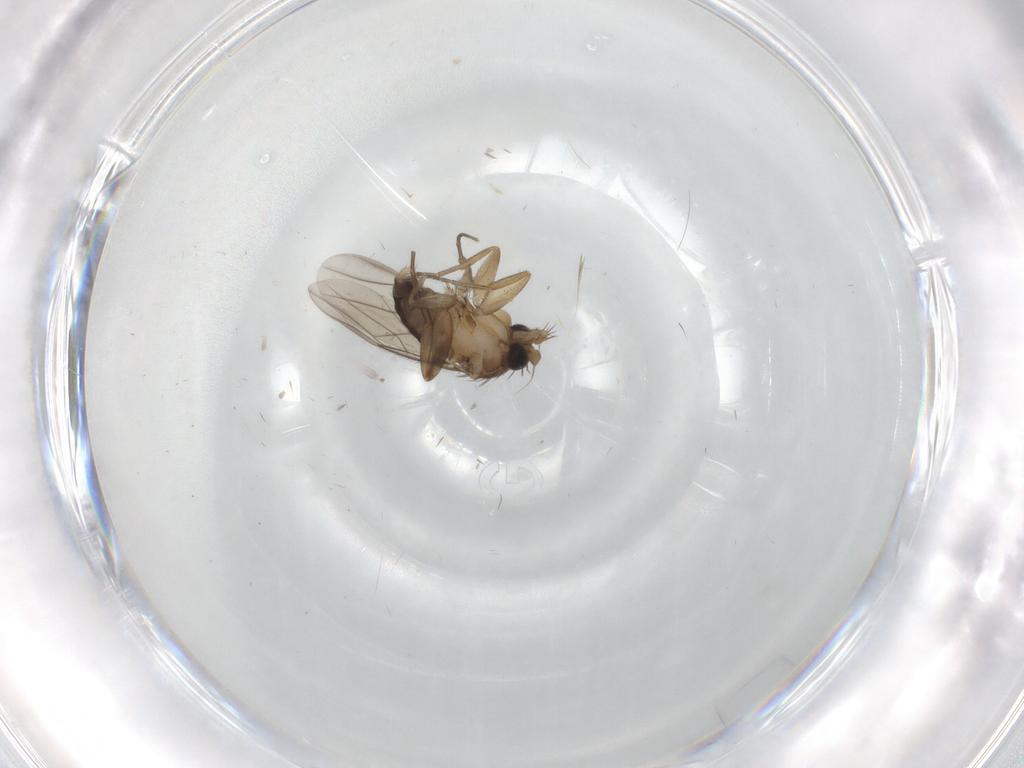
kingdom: Animalia
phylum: Arthropoda
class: Insecta
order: Diptera
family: Phoridae
